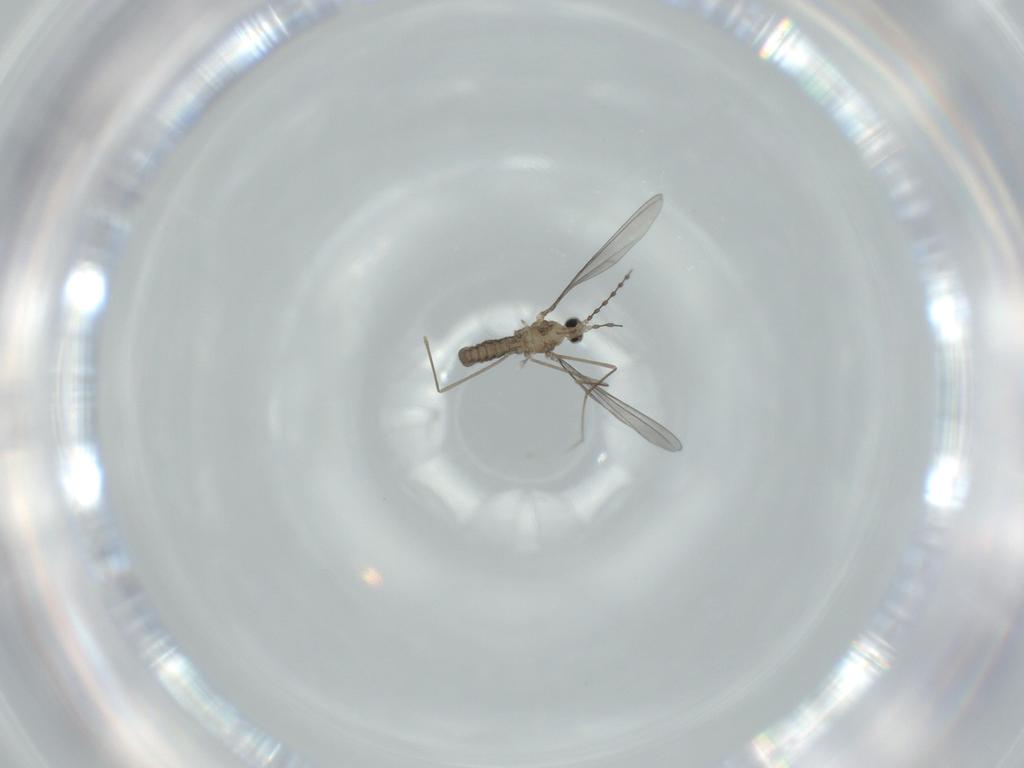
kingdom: Animalia
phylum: Arthropoda
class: Insecta
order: Diptera
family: Cecidomyiidae
